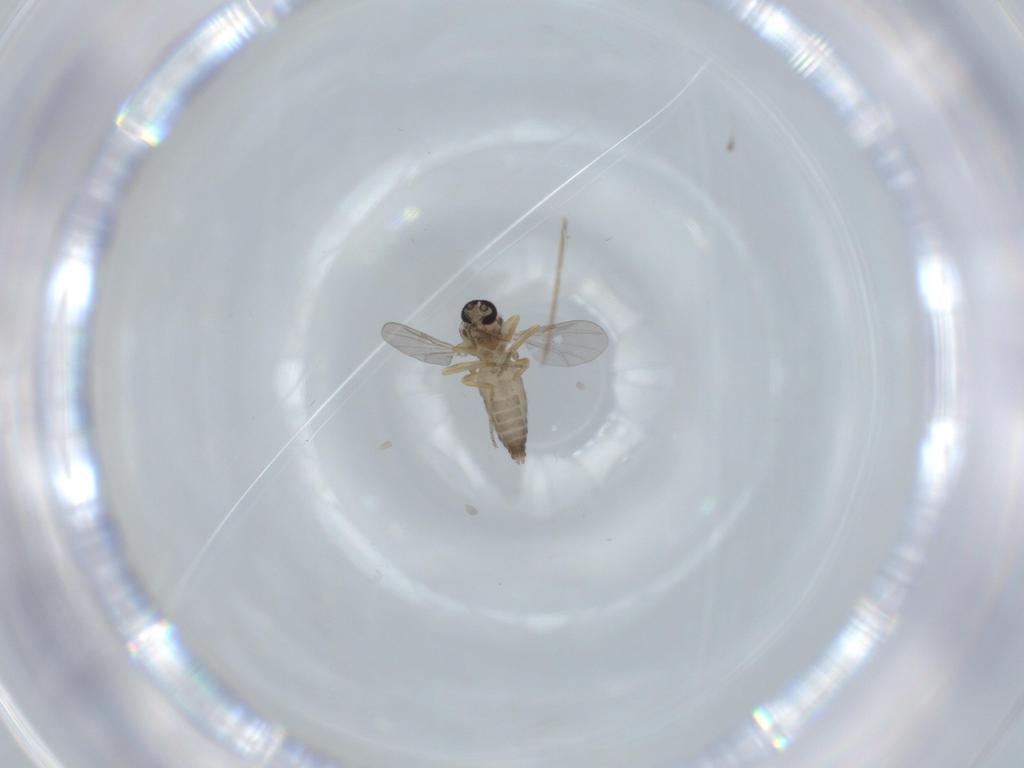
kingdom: Animalia
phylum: Arthropoda
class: Insecta
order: Diptera
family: Ceratopogonidae
